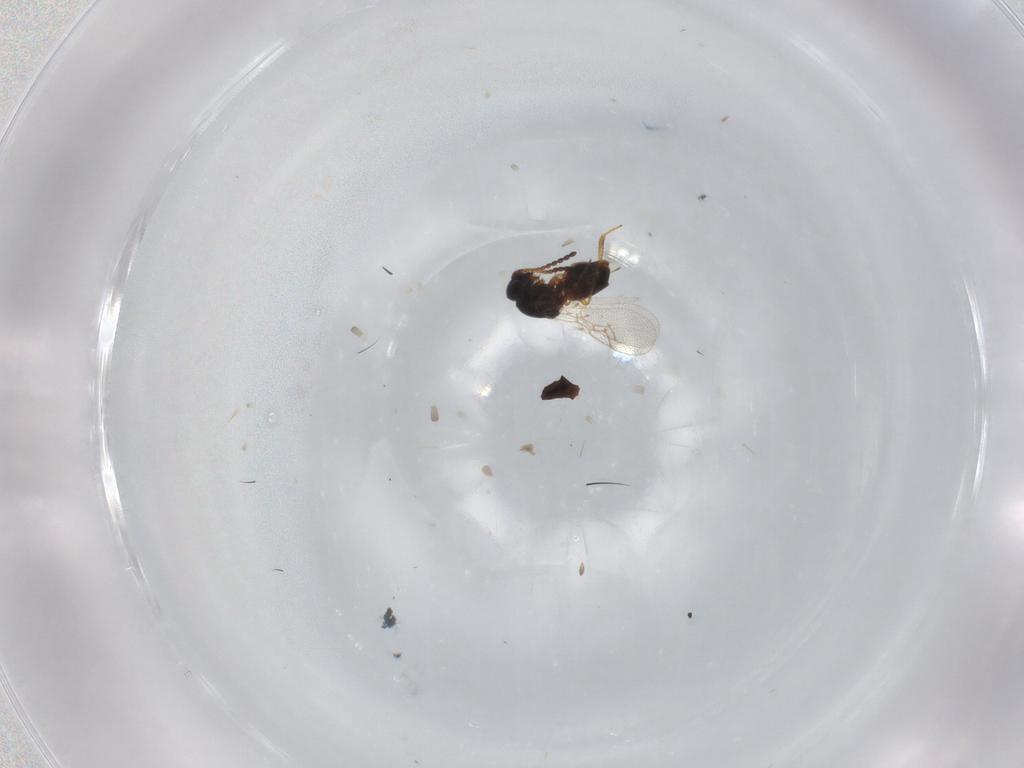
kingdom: Animalia
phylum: Arthropoda
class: Insecta
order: Hymenoptera
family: Figitidae
